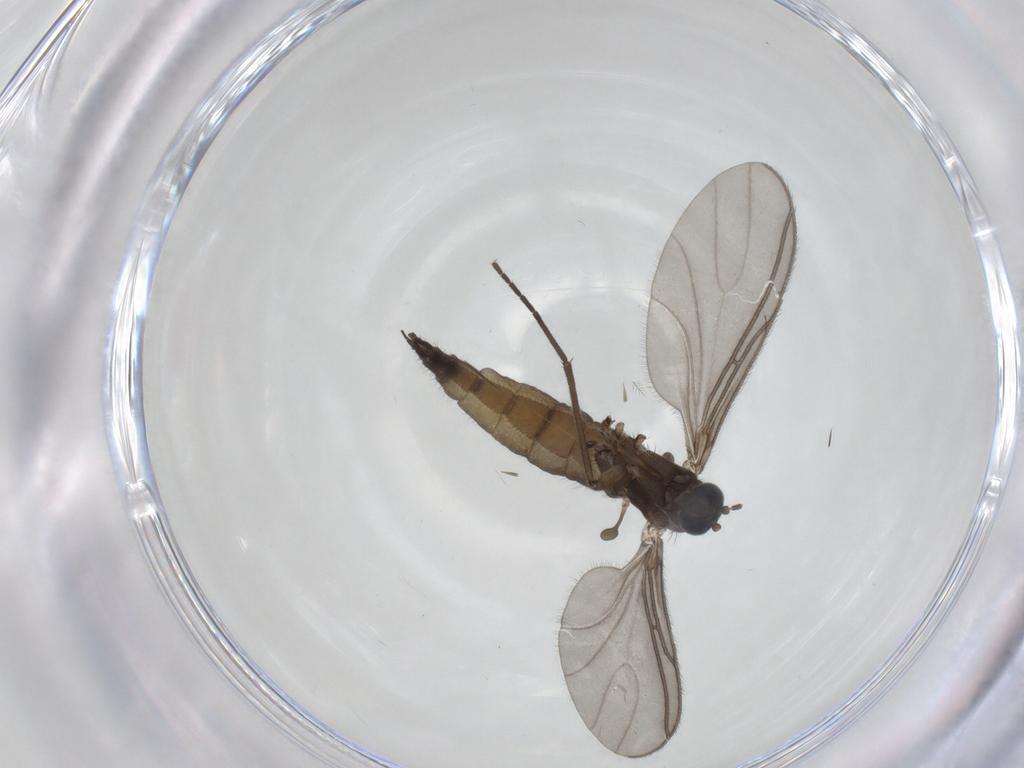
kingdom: Animalia
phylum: Arthropoda
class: Insecta
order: Diptera
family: Sciaridae
